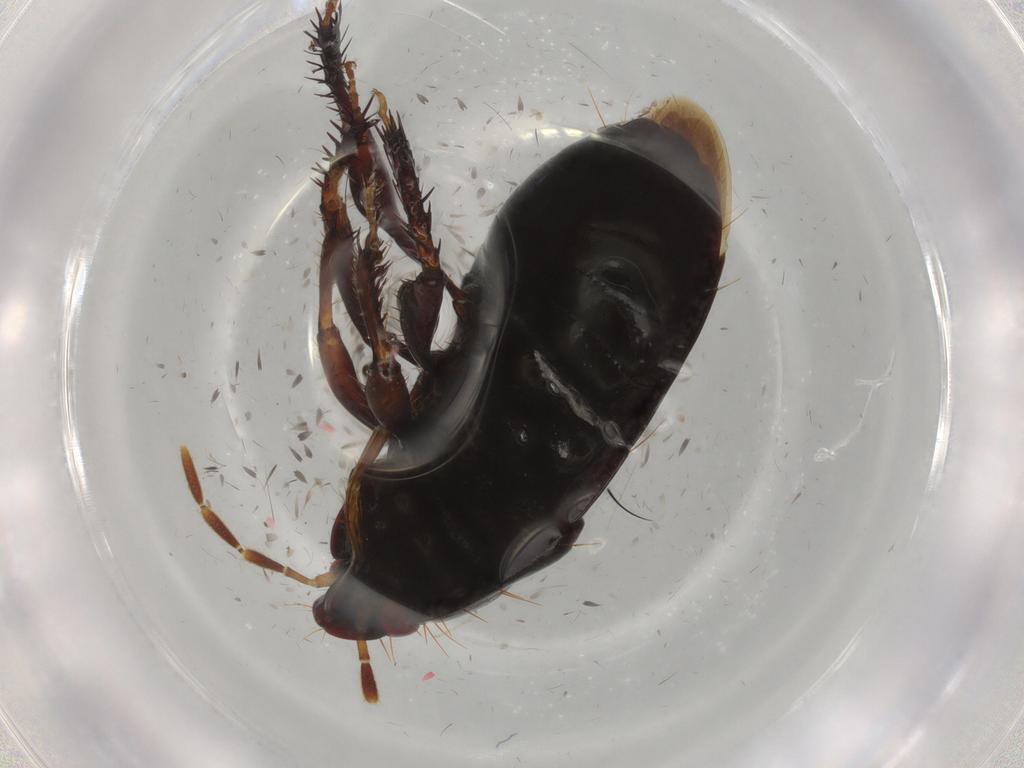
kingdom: Animalia
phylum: Arthropoda
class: Insecta
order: Hemiptera
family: Cydnidae
